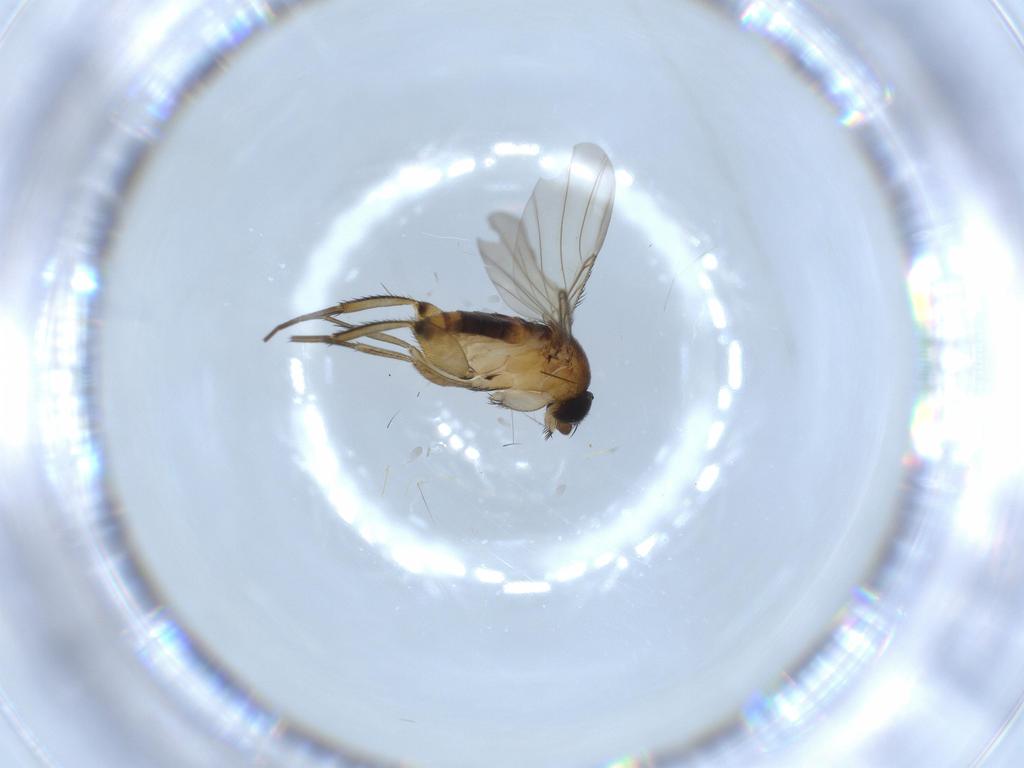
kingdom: Animalia
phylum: Arthropoda
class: Insecta
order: Diptera
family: Phoridae
